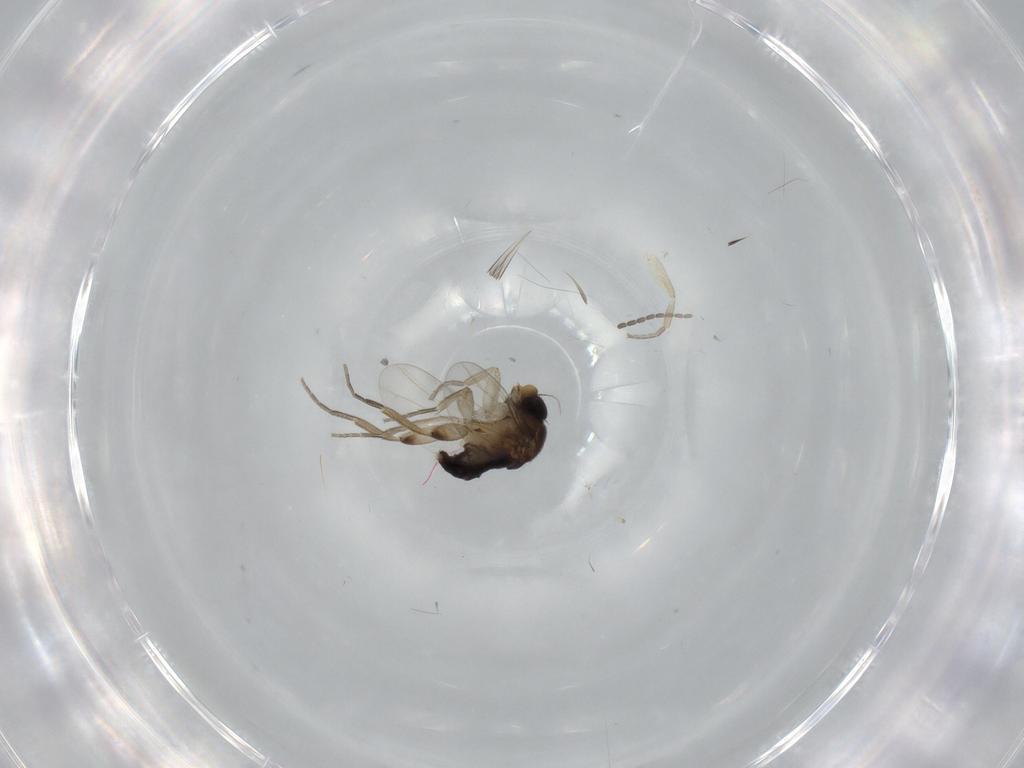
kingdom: Animalia
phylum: Arthropoda
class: Insecta
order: Diptera
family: Phoridae
